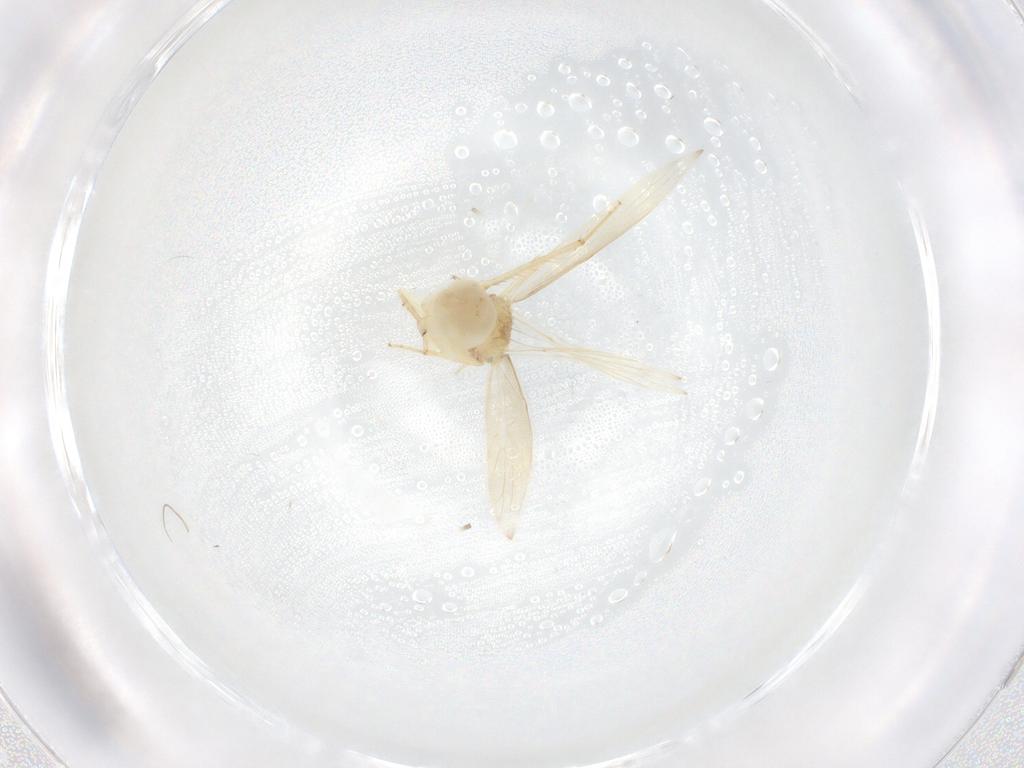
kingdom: Animalia
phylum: Arthropoda
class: Insecta
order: Psocodea
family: Lepidopsocidae
